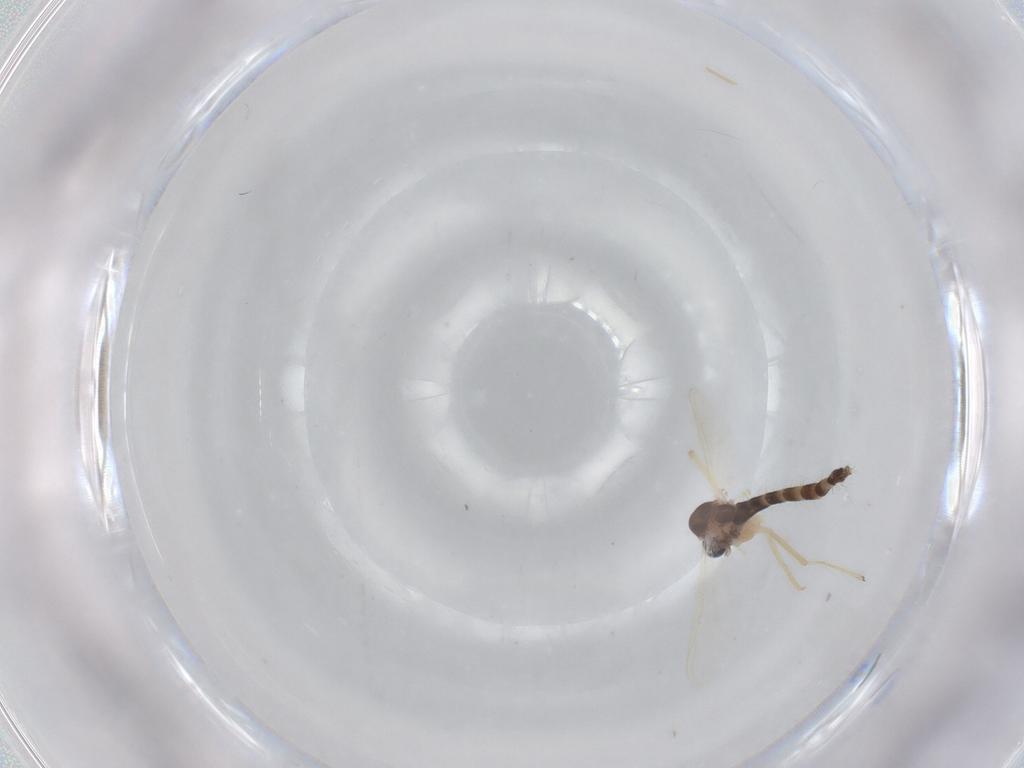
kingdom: Animalia
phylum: Arthropoda
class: Insecta
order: Diptera
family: Chironomidae
